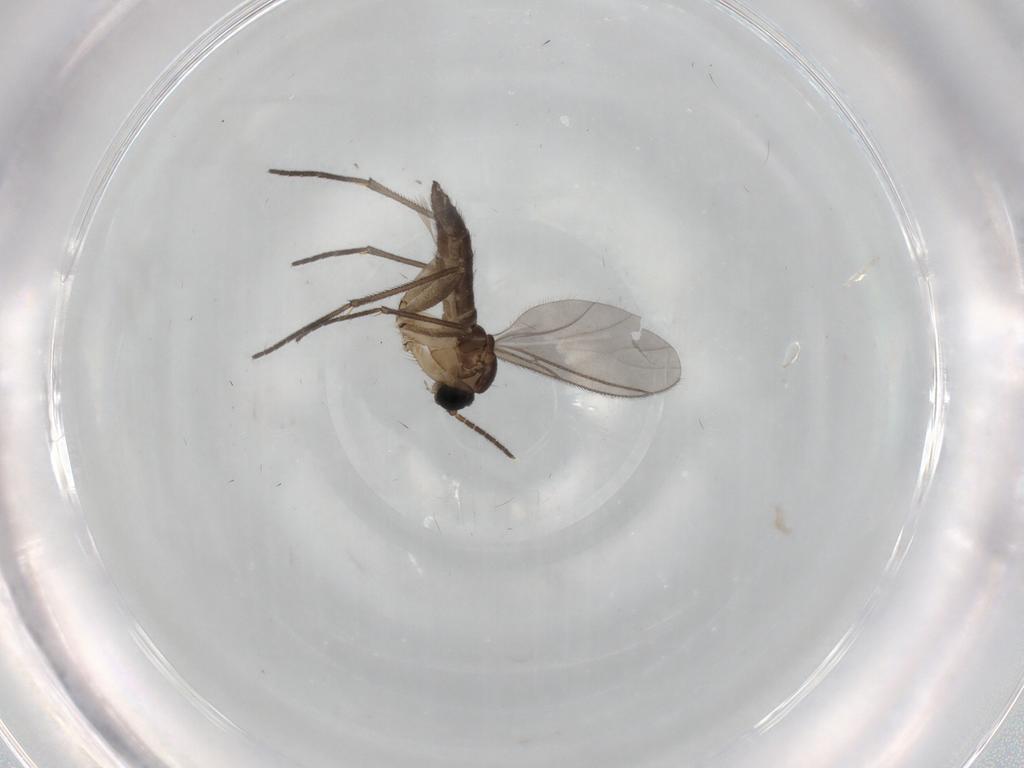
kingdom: Animalia
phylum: Arthropoda
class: Insecta
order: Diptera
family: Sciaridae
